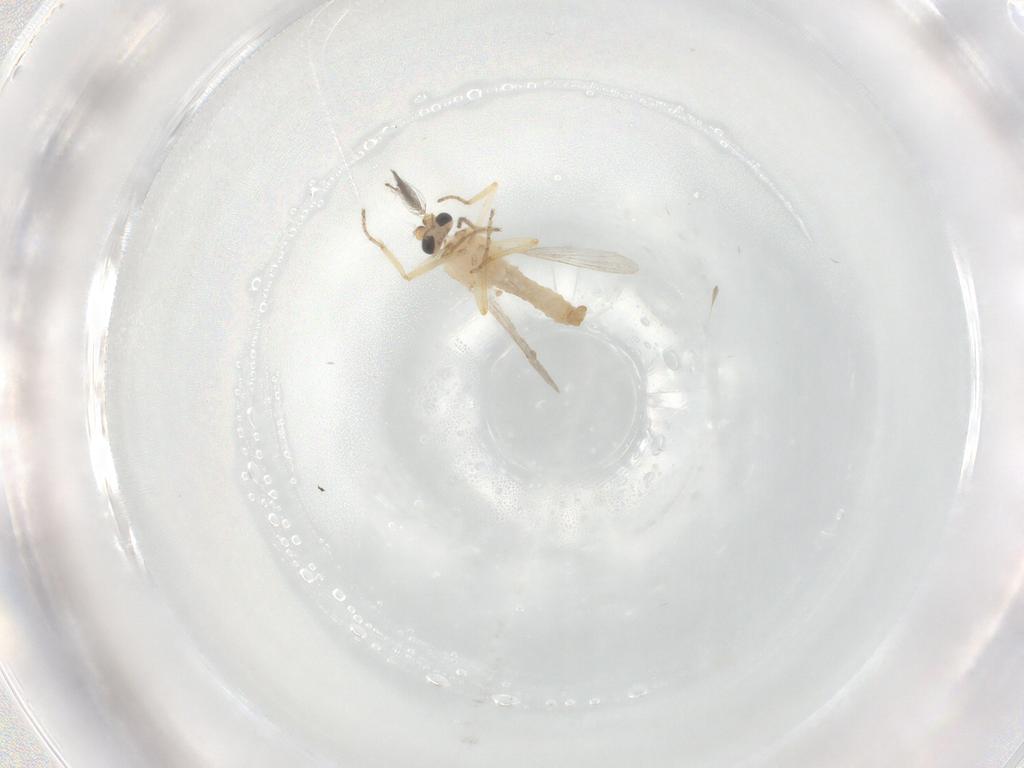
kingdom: Animalia
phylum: Arthropoda
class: Insecta
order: Diptera
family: Ceratopogonidae
